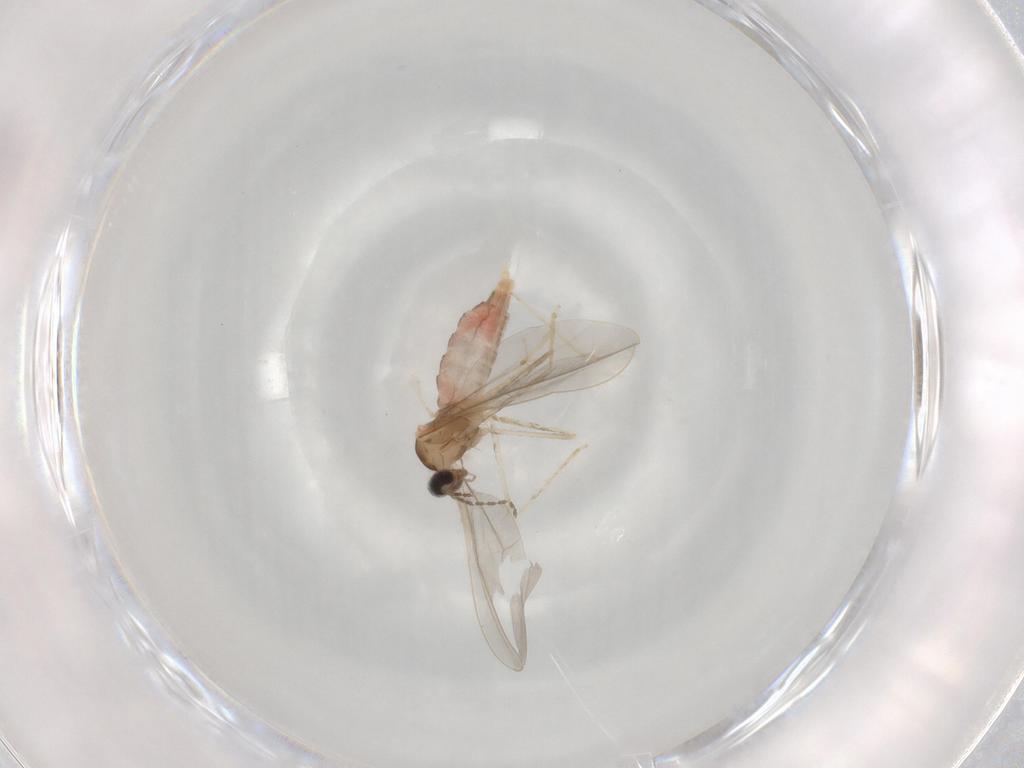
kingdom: Animalia
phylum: Arthropoda
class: Insecta
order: Diptera
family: Cecidomyiidae
